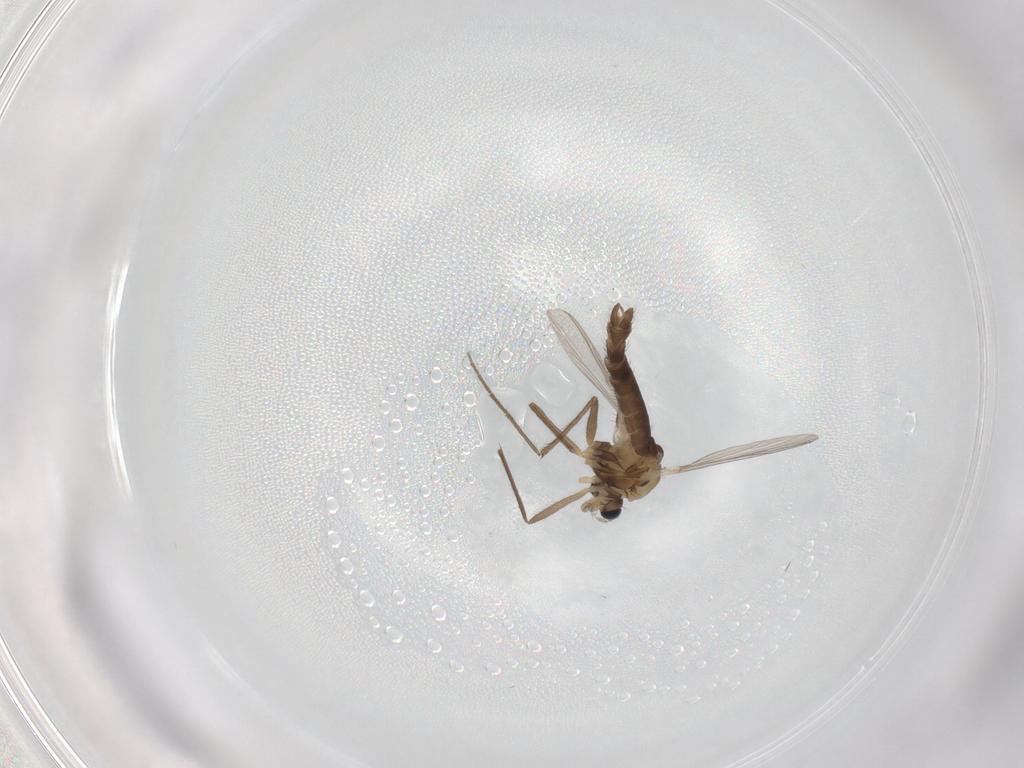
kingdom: Animalia
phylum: Arthropoda
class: Insecta
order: Diptera
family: Chironomidae
